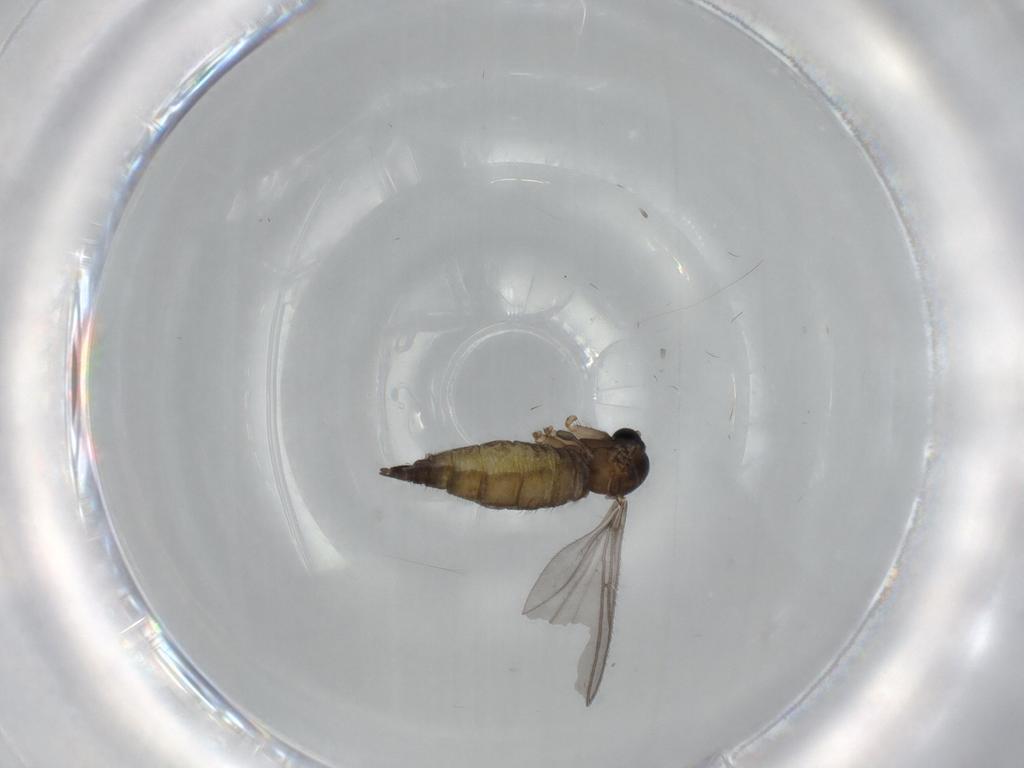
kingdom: Animalia
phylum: Arthropoda
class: Insecta
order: Diptera
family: Sciaridae
